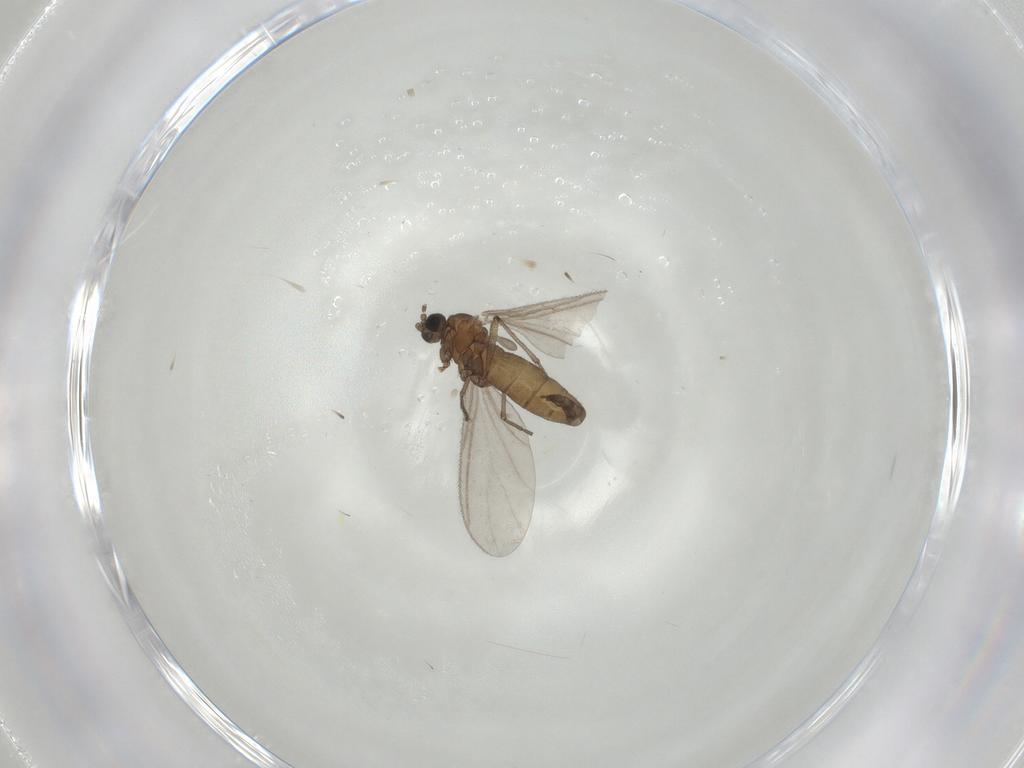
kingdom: Animalia
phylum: Arthropoda
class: Insecta
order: Diptera
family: Sciaridae
